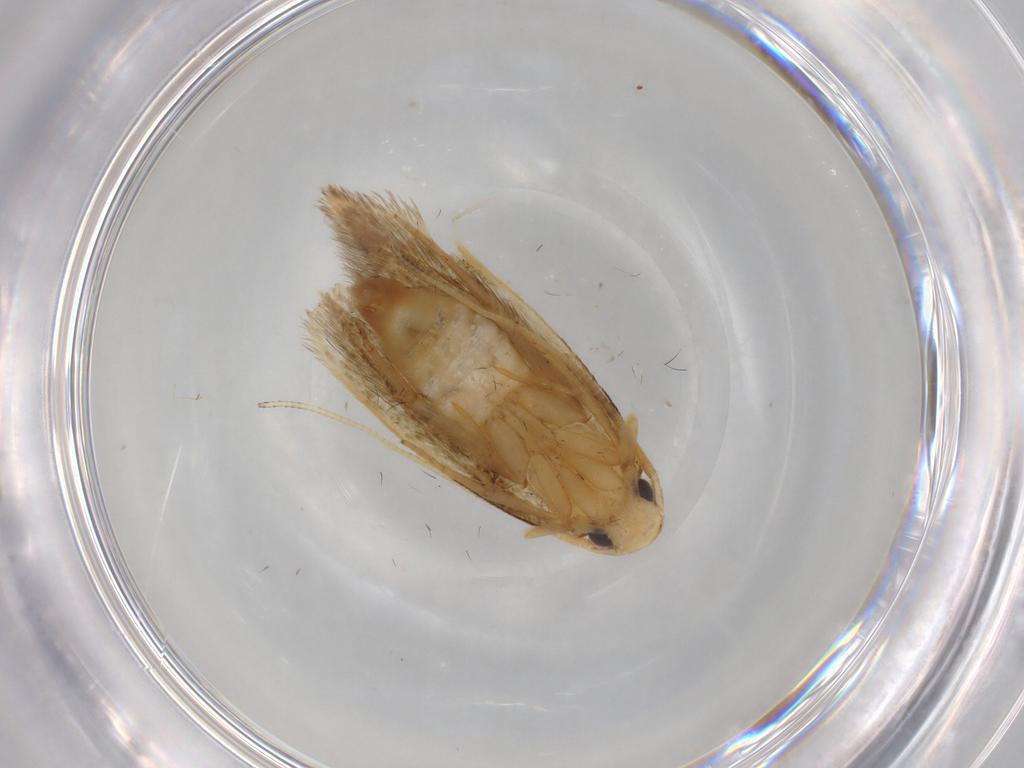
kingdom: Animalia
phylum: Arthropoda
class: Insecta
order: Lepidoptera
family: Tineidae
